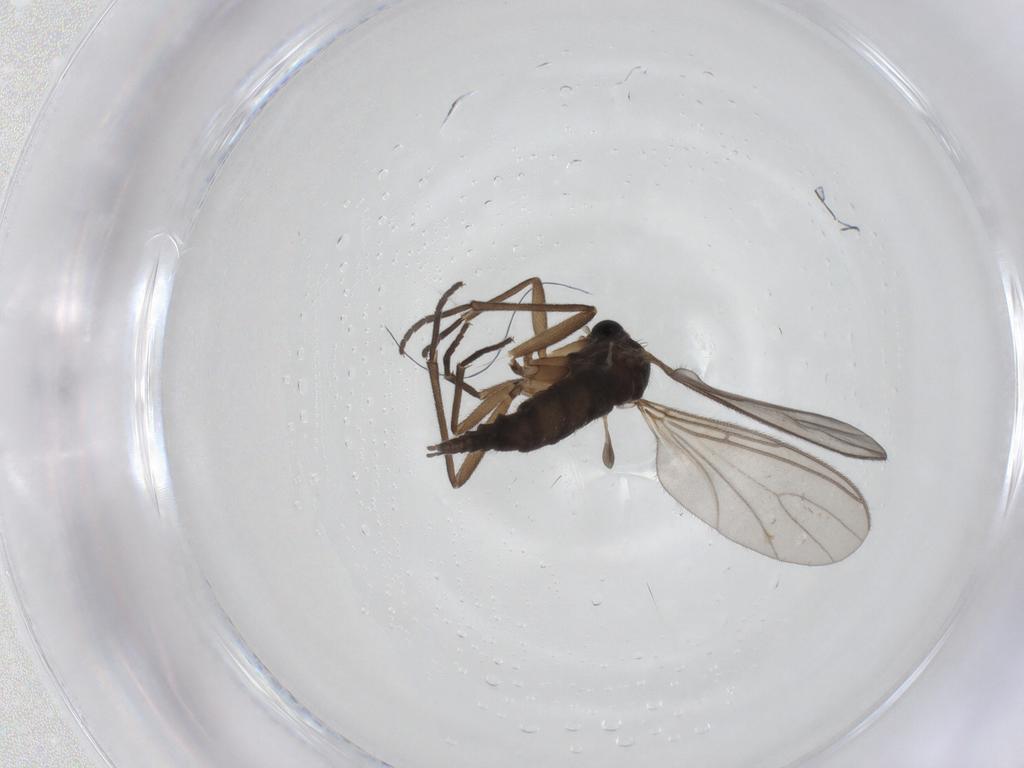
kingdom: Animalia
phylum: Arthropoda
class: Insecta
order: Diptera
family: Sciaridae
